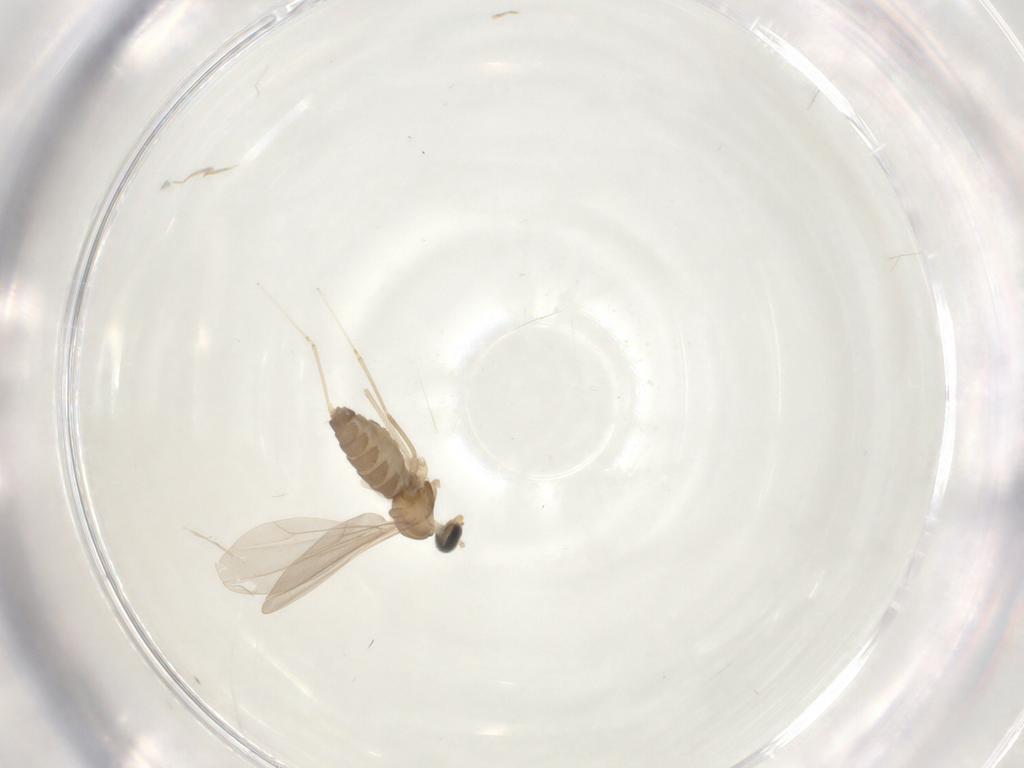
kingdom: Animalia
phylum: Arthropoda
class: Insecta
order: Diptera
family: Cecidomyiidae
